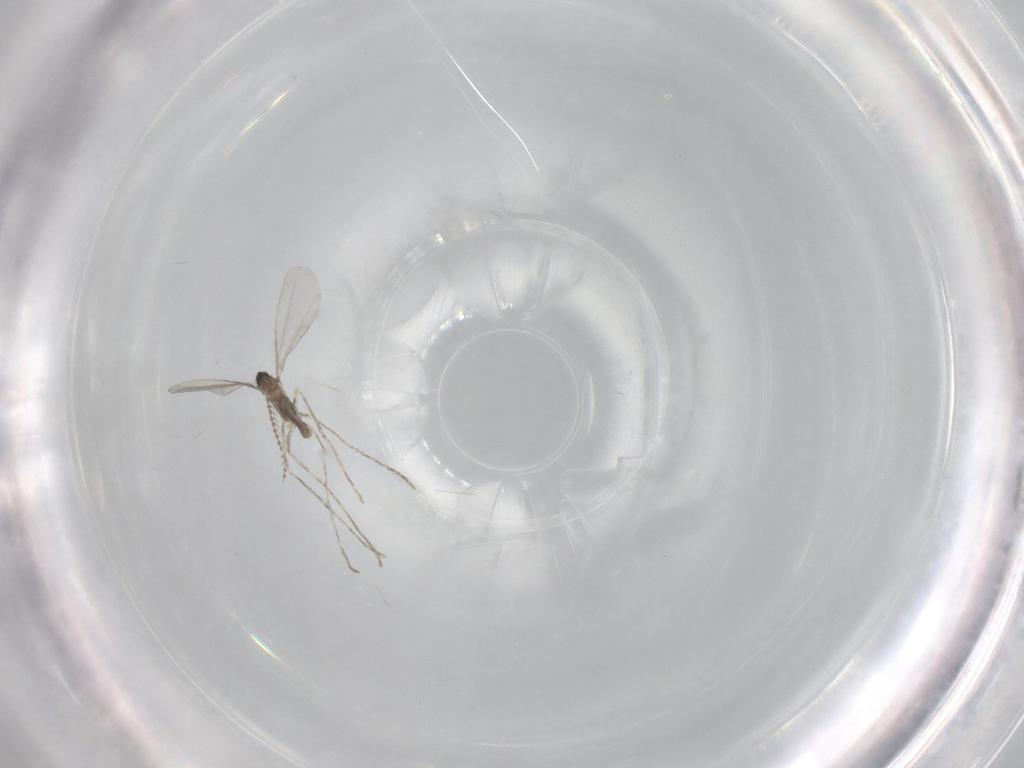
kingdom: Animalia
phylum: Arthropoda
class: Insecta
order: Diptera
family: Cecidomyiidae
